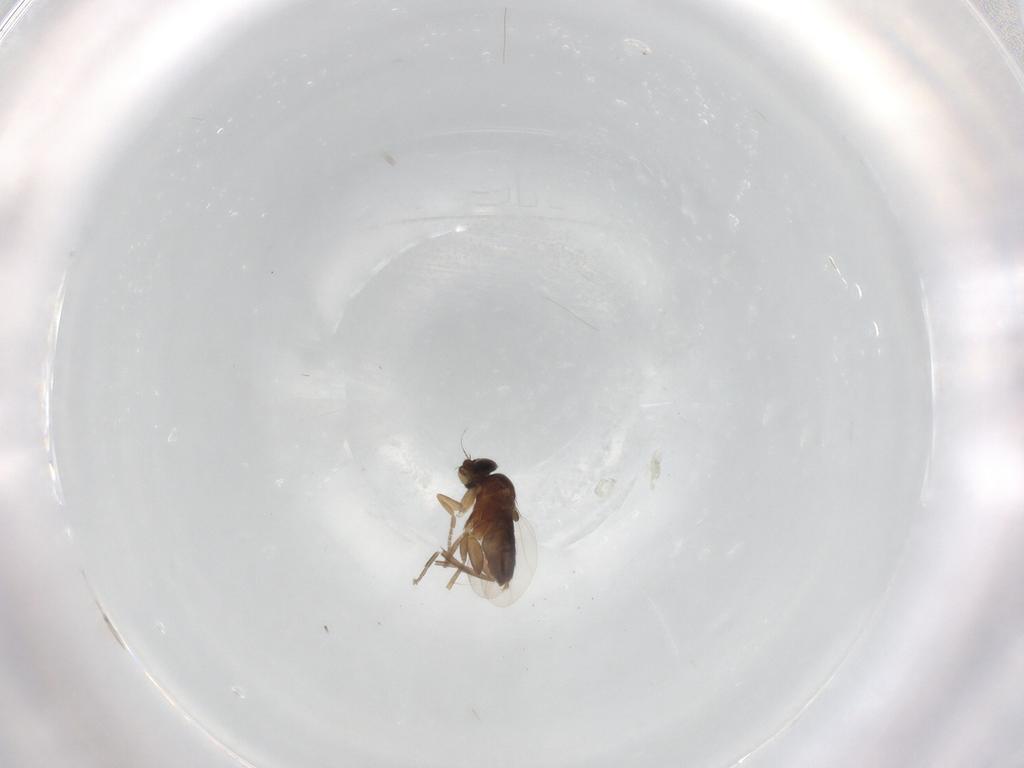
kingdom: Animalia
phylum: Arthropoda
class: Insecta
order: Diptera
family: Phoridae
